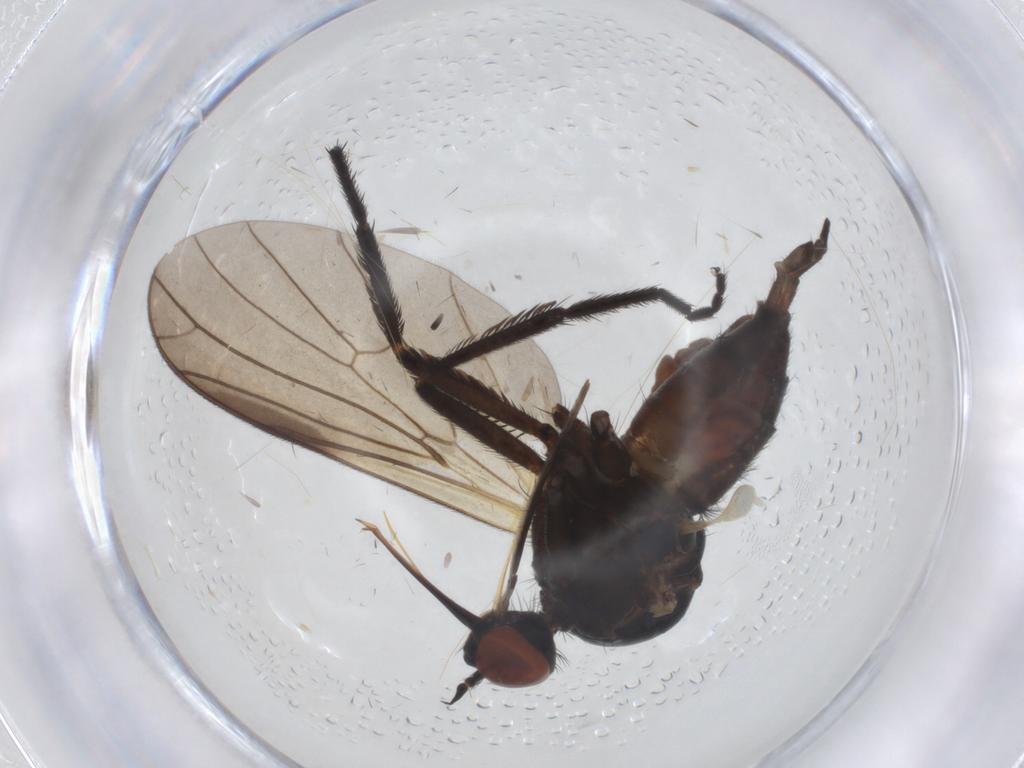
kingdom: Animalia
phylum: Arthropoda
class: Insecta
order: Diptera
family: Empididae
